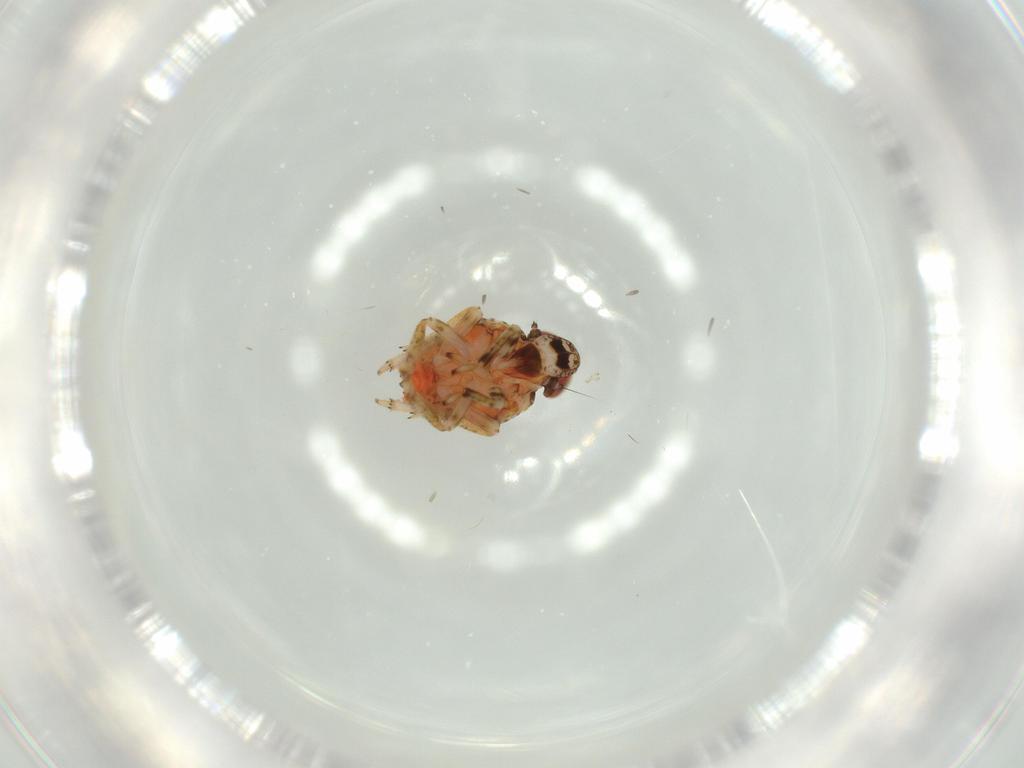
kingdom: Animalia
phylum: Arthropoda
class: Insecta
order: Hemiptera
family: Issidae
